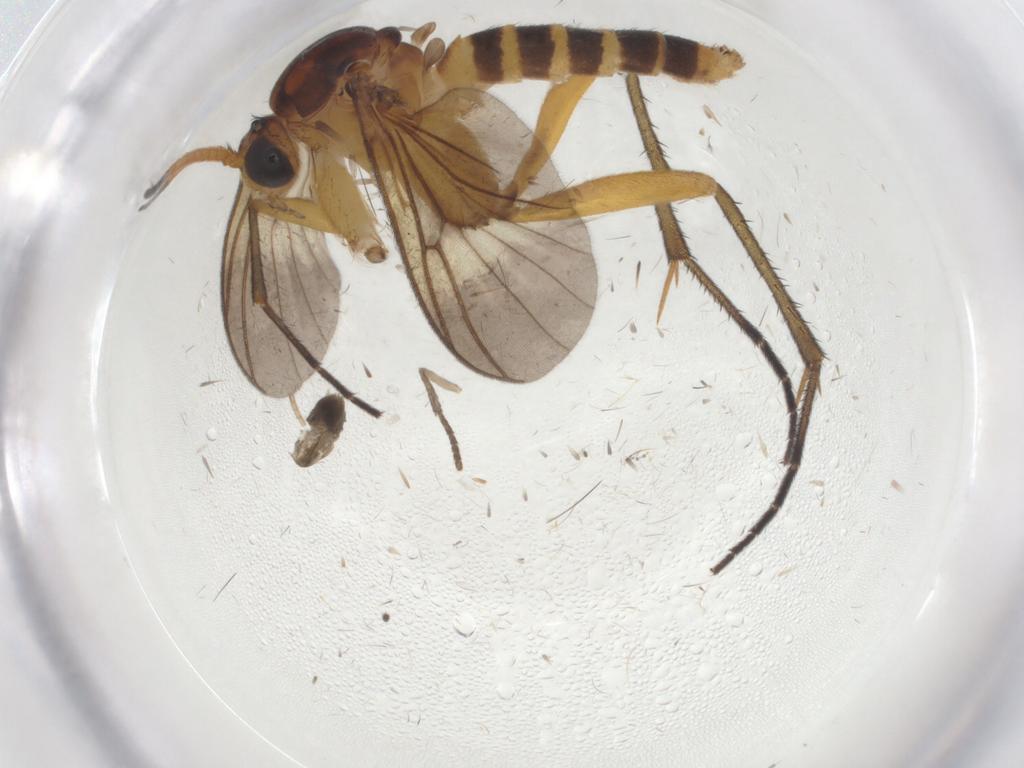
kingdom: Animalia
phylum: Arthropoda
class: Insecta
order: Diptera
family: Mycetophilidae
